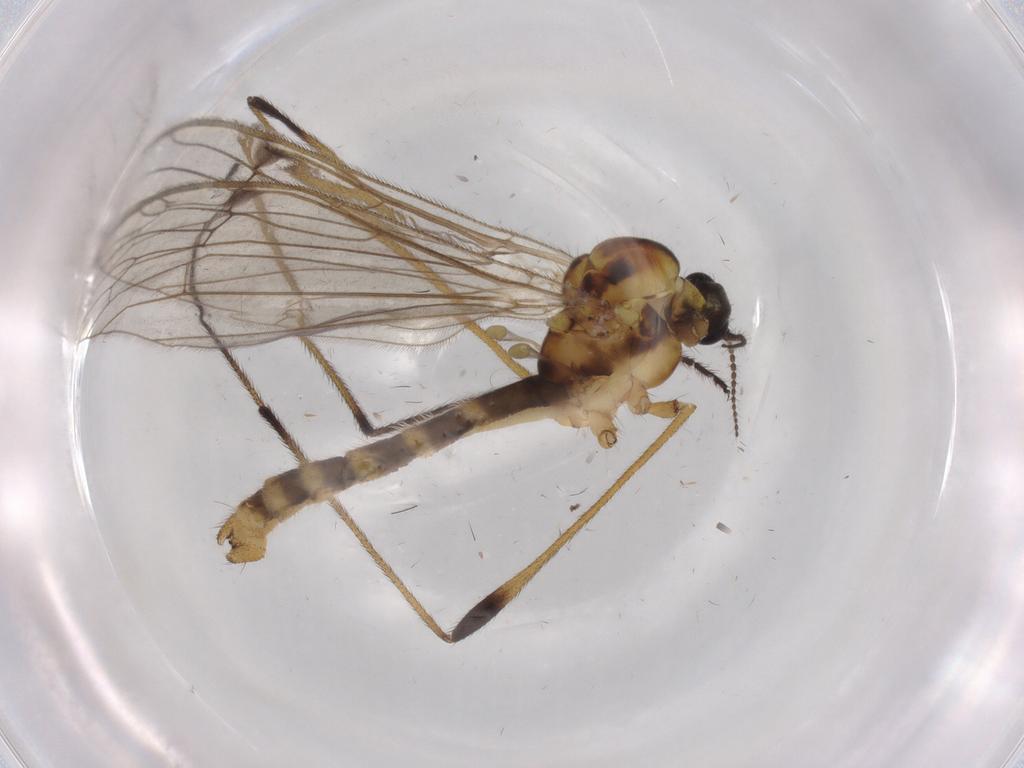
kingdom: Animalia
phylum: Arthropoda
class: Insecta
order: Diptera
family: Limoniidae
